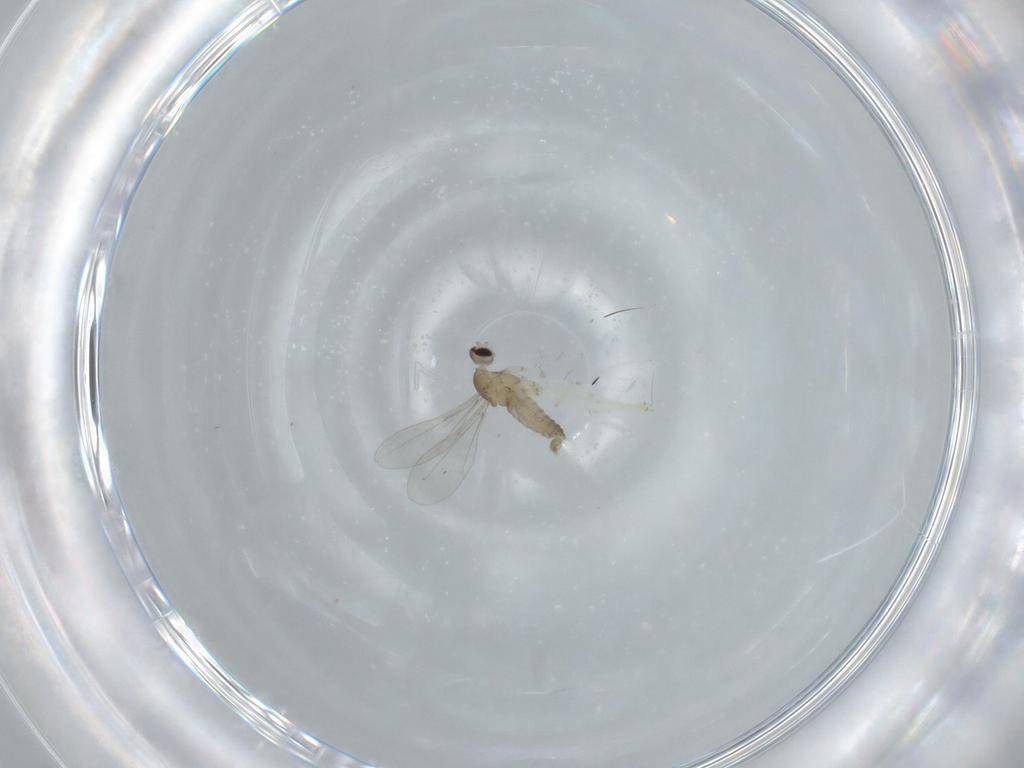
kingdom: Animalia
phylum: Arthropoda
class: Insecta
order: Diptera
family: Cecidomyiidae
